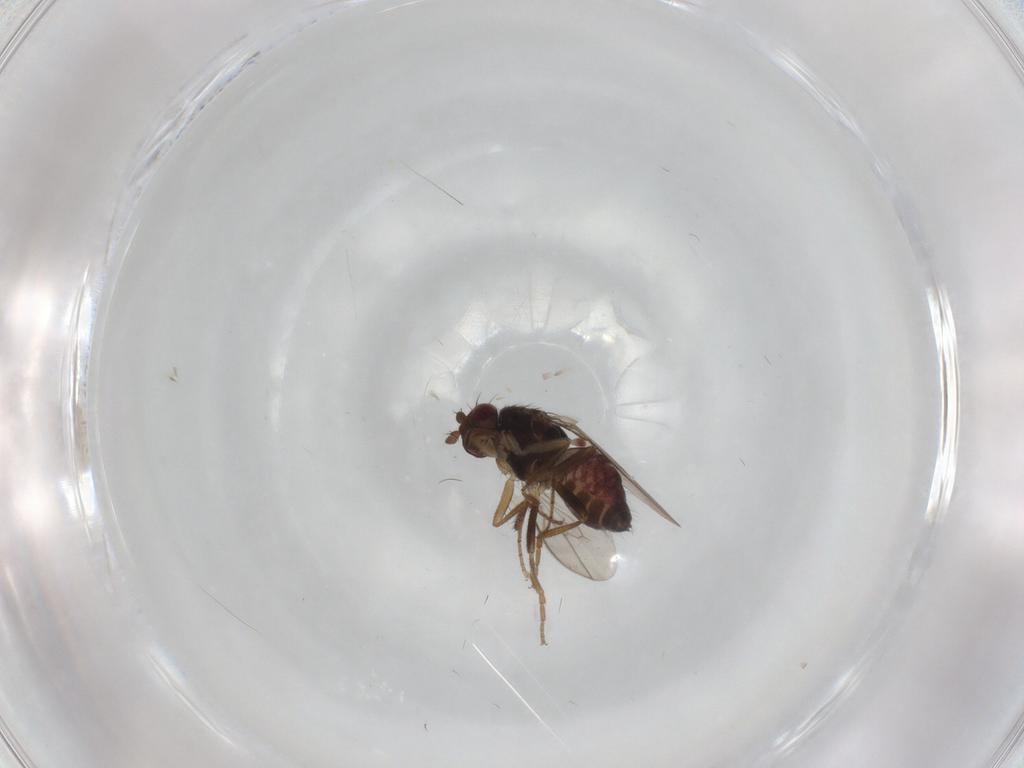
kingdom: Animalia
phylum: Arthropoda
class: Insecta
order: Diptera
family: Sphaeroceridae
